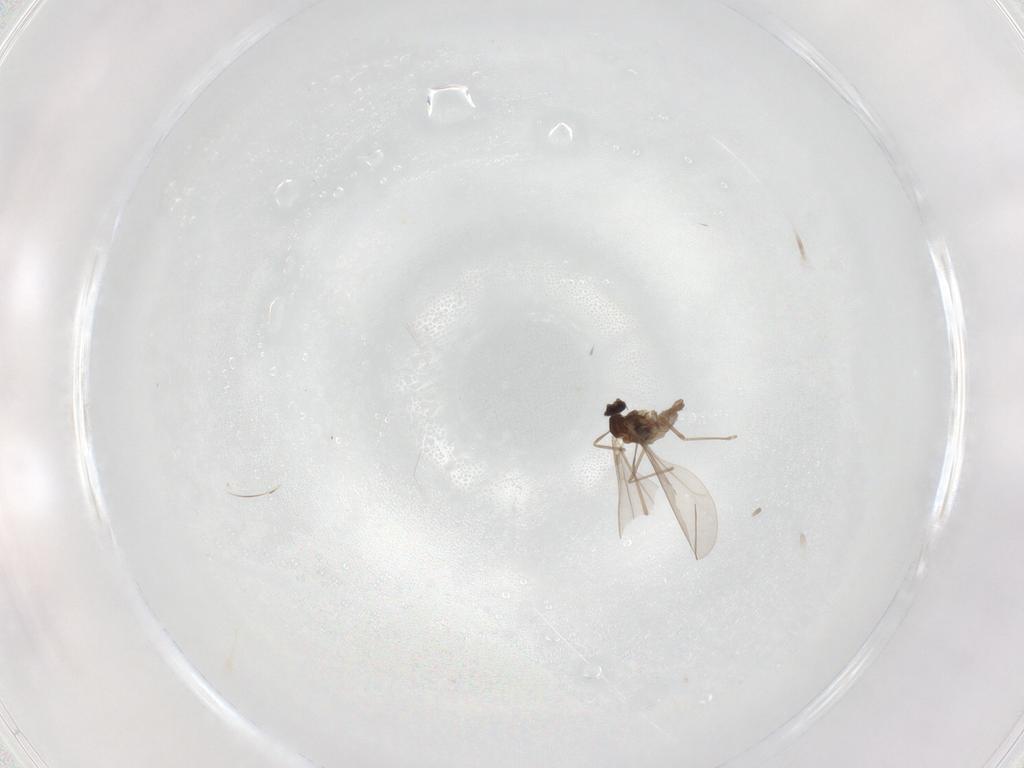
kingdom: Animalia
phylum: Arthropoda
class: Insecta
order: Diptera
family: Cecidomyiidae
